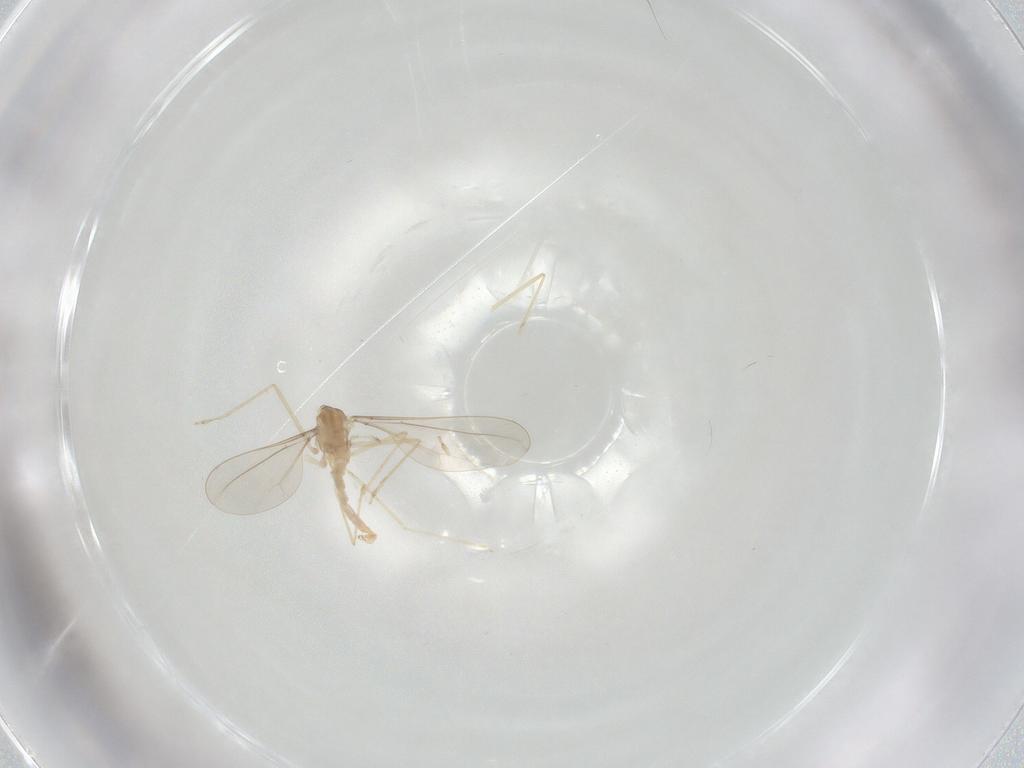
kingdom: Animalia
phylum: Arthropoda
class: Insecta
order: Diptera
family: Cecidomyiidae
